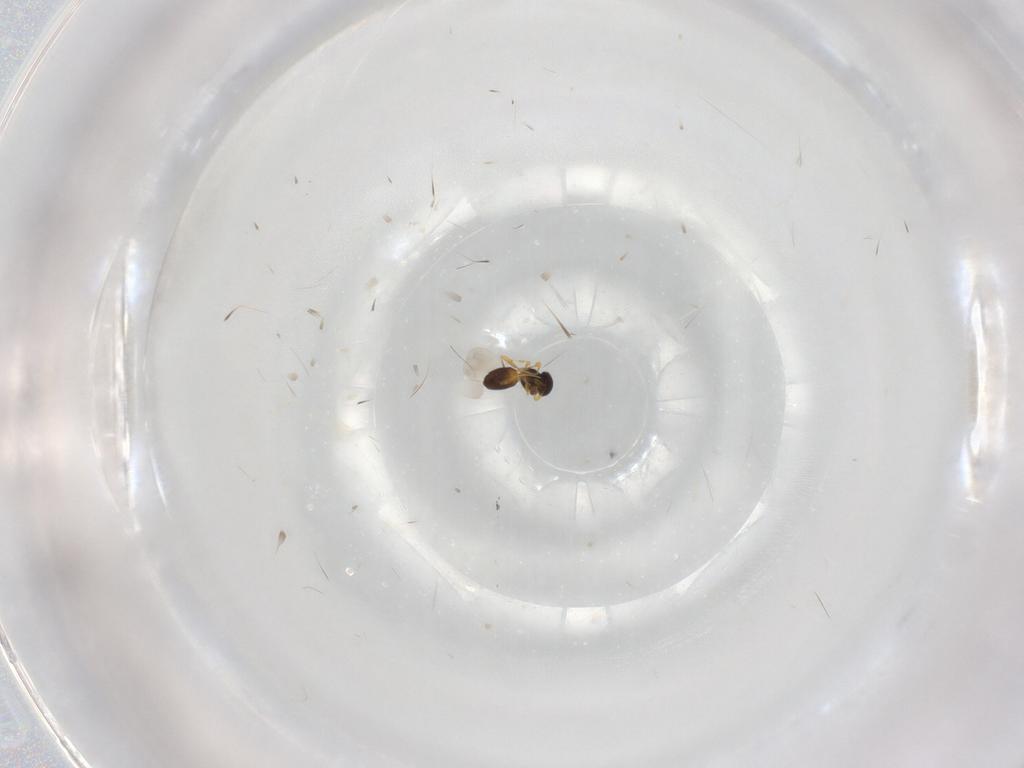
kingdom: Animalia
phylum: Arthropoda
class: Insecta
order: Hymenoptera
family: Platygastridae
